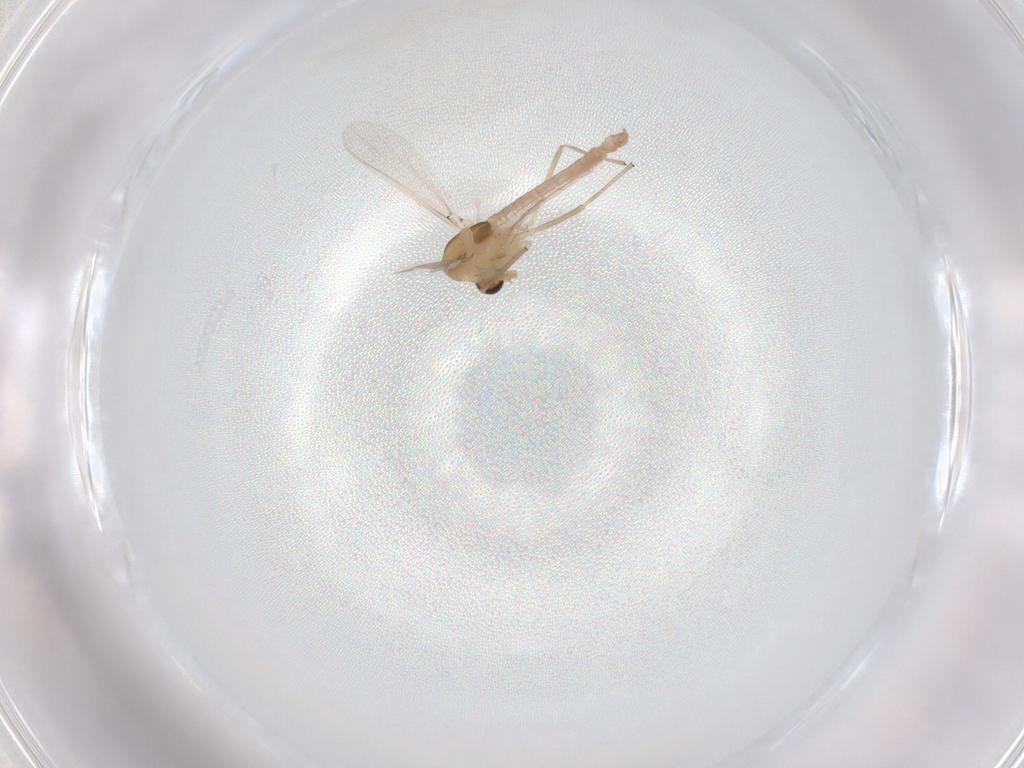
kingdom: Animalia
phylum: Arthropoda
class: Insecta
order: Diptera
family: Chironomidae
